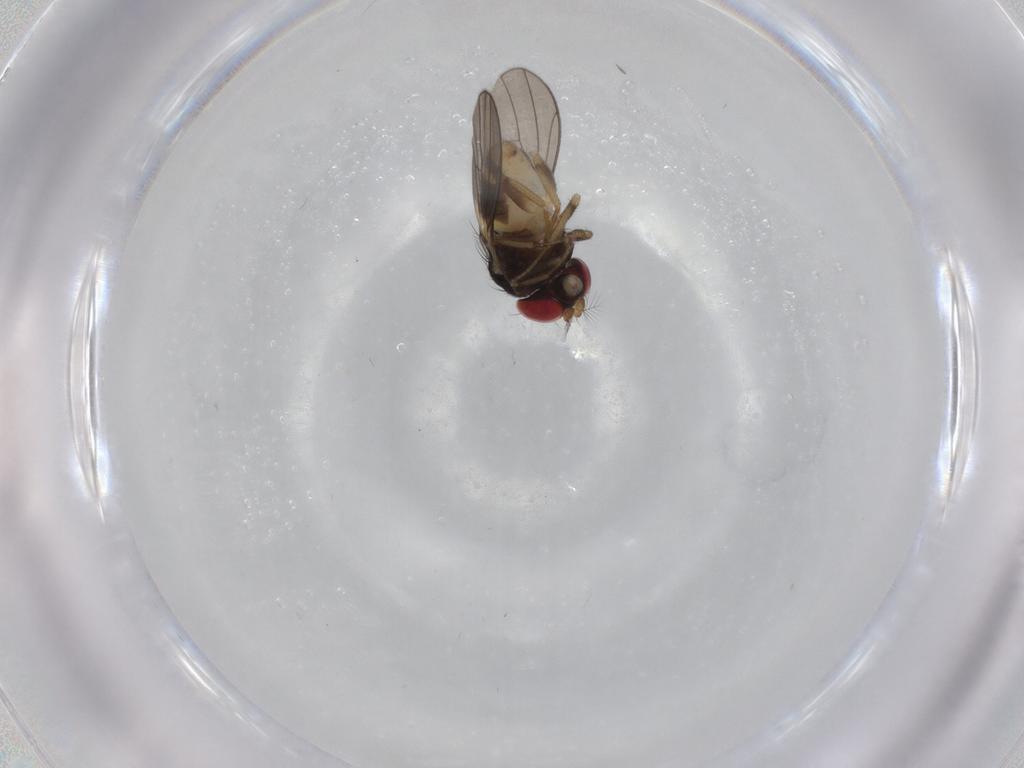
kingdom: Animalia
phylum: Arthropoda
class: Insecta
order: Diptera
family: Drosophilidae
